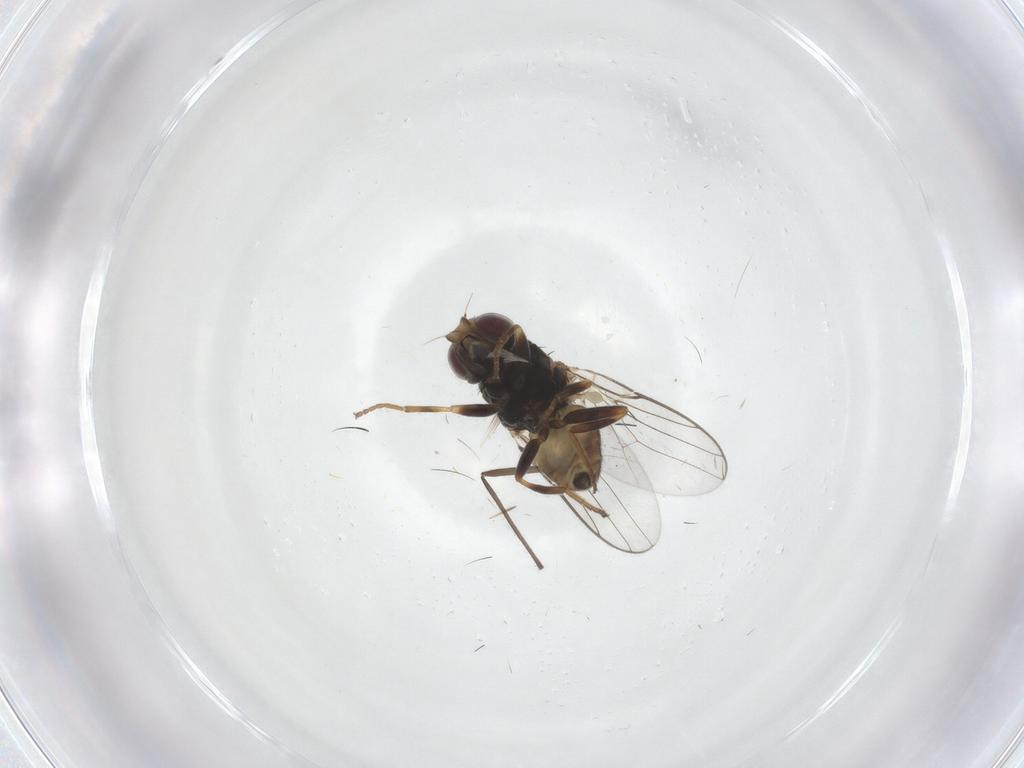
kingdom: Animalia
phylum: Arthropoda
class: Insecta
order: Diptera
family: Chloropidae
